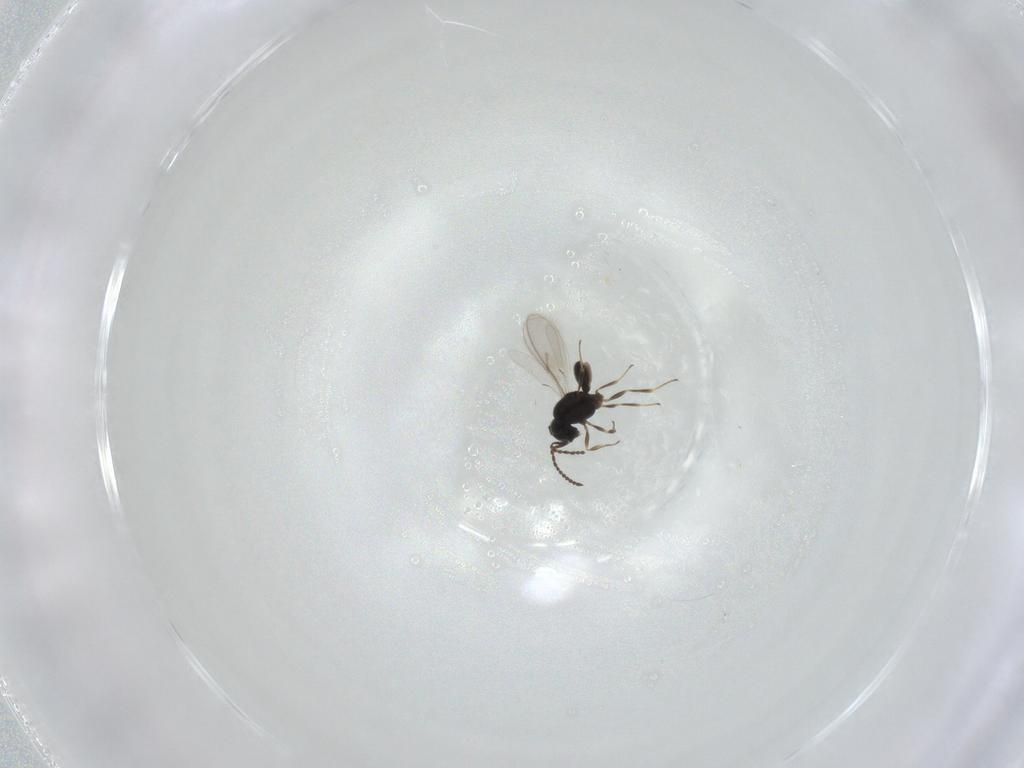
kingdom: Animalia
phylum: Arthropoda
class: Insecta
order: Hymenoptera
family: Scelionidae
